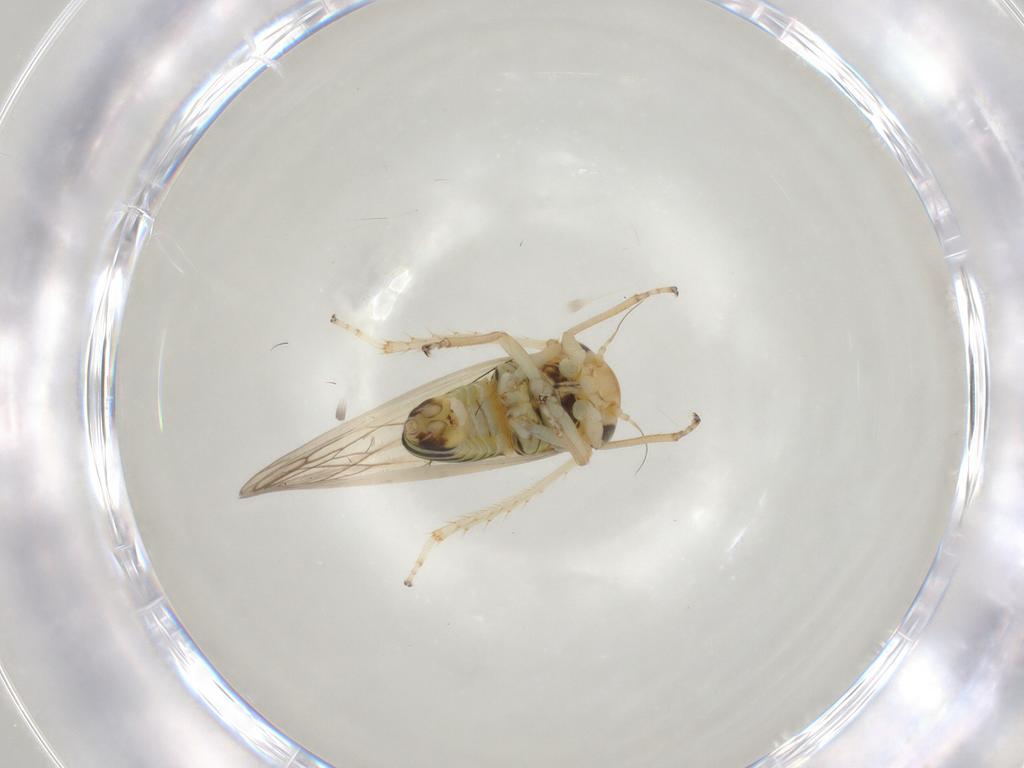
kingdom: Animalia
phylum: Arthropoda
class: Insecta
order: Hemiptera
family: Cicadellidae
